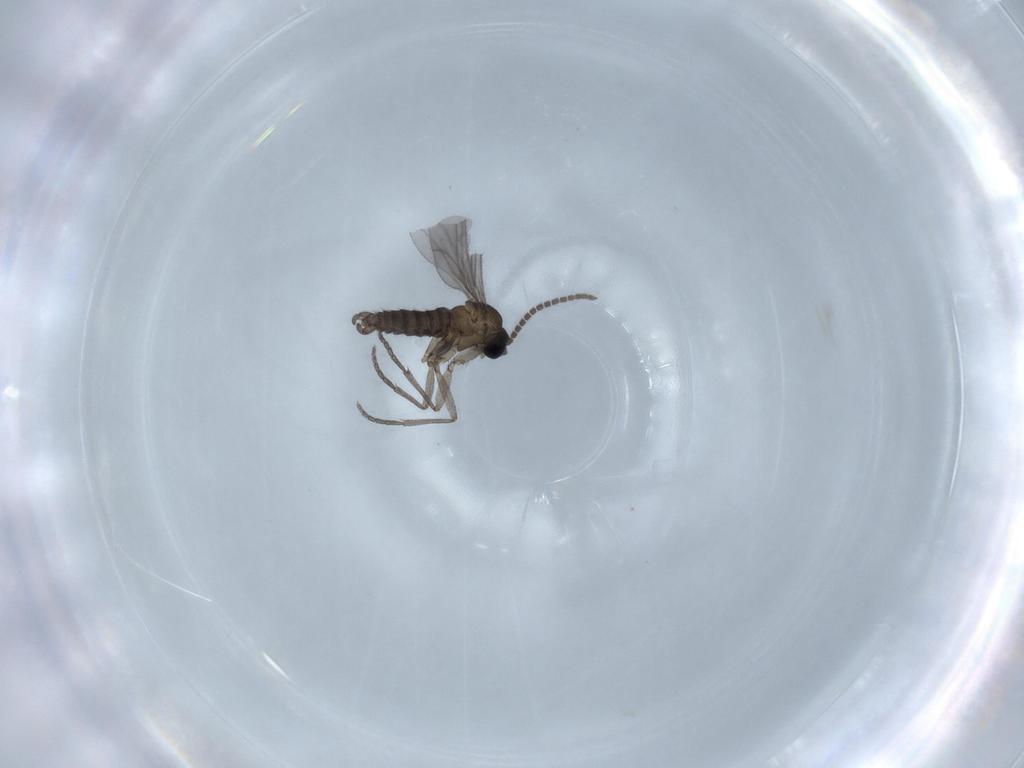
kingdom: Animalia
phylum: Arthropoda
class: Insecta
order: Diptera
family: Sciaridae
